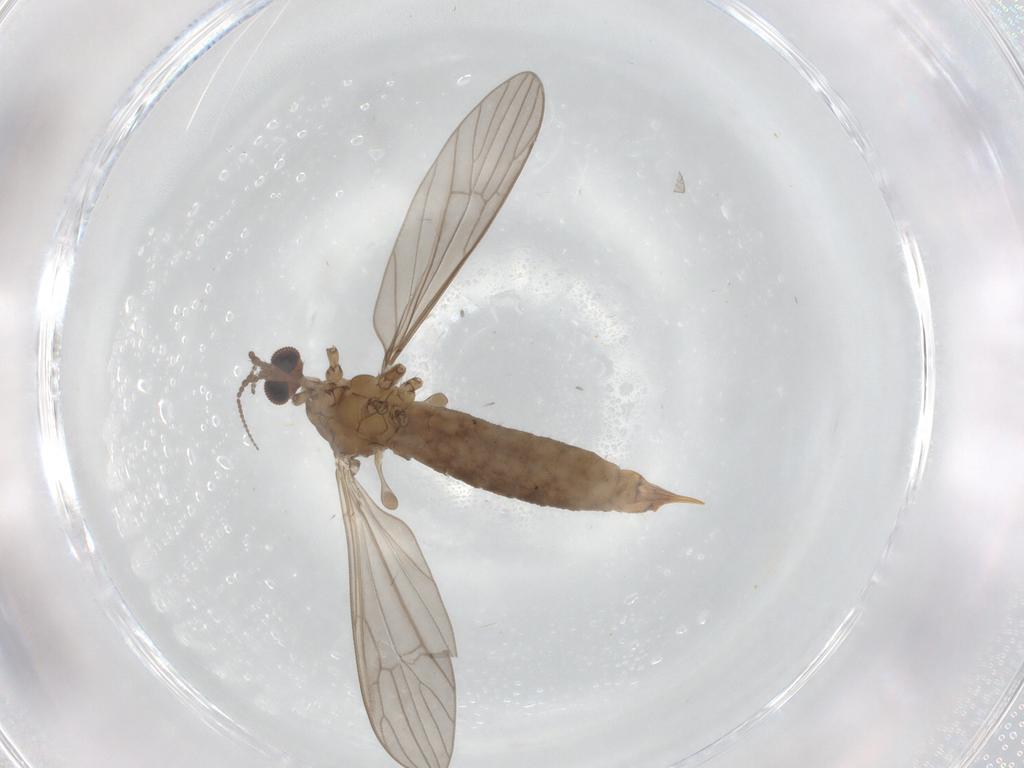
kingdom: Animalia
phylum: Arthropoda
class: Insecta
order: Diptera
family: Limoniidae
